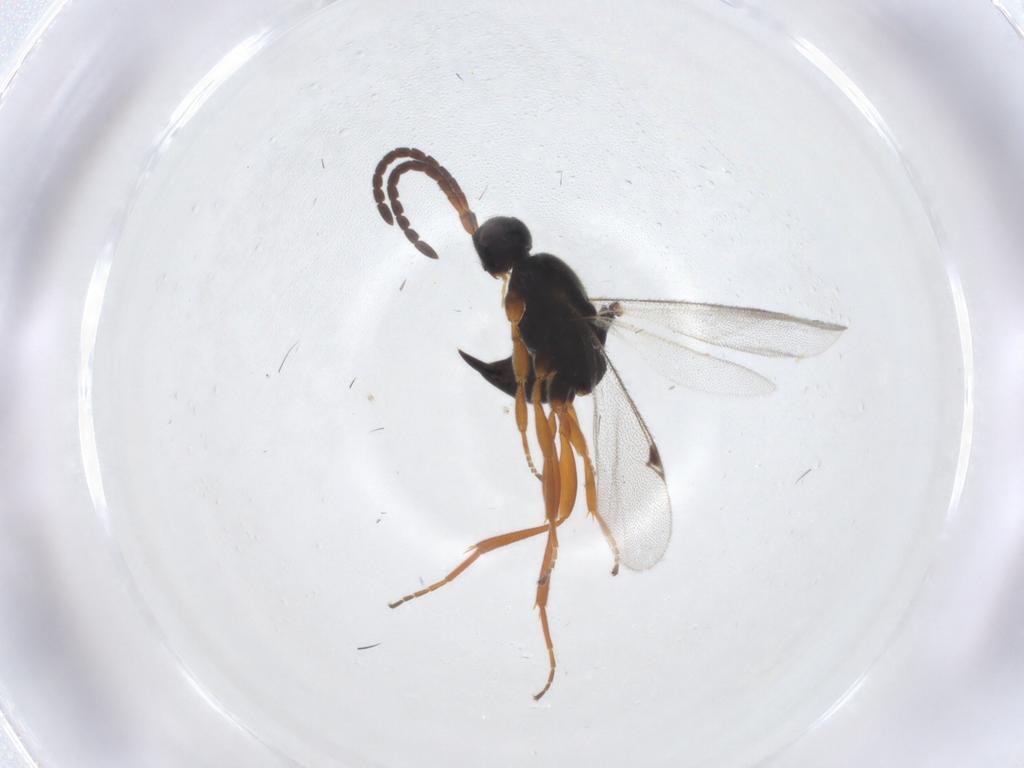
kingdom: Animalia
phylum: Arthropoda
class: Insecta
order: Hymenoptera
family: Proctotrupidae
